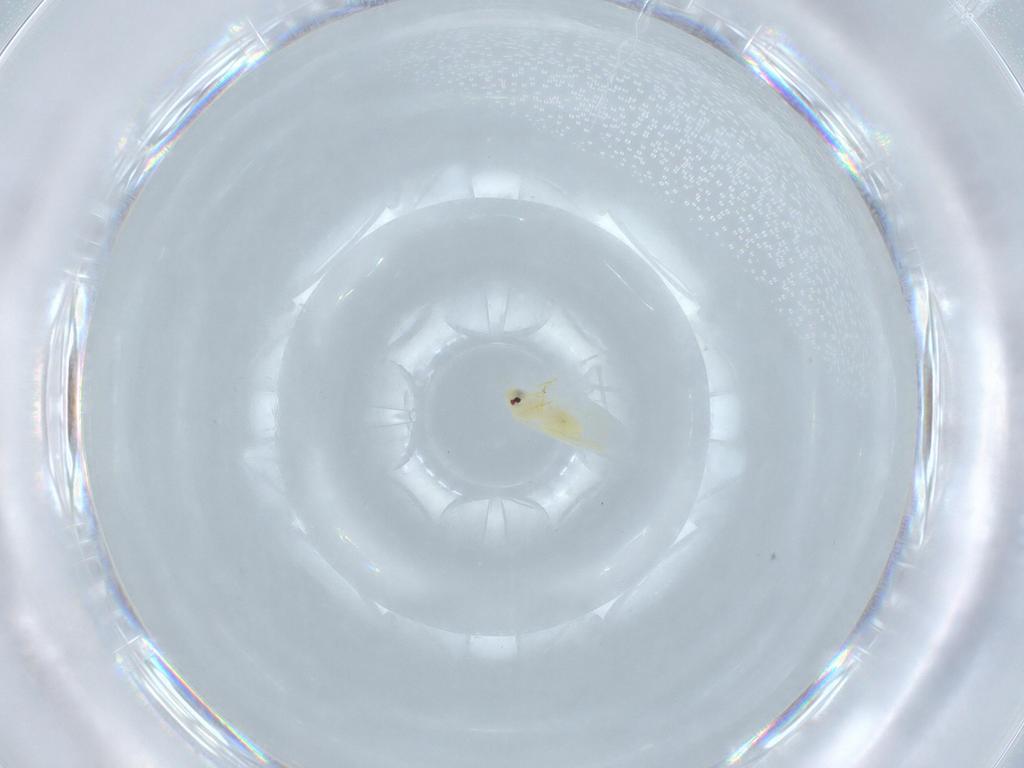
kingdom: Animalia
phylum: Arthropoda
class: Insecta
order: Hemiptera
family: Aleyrodidae
